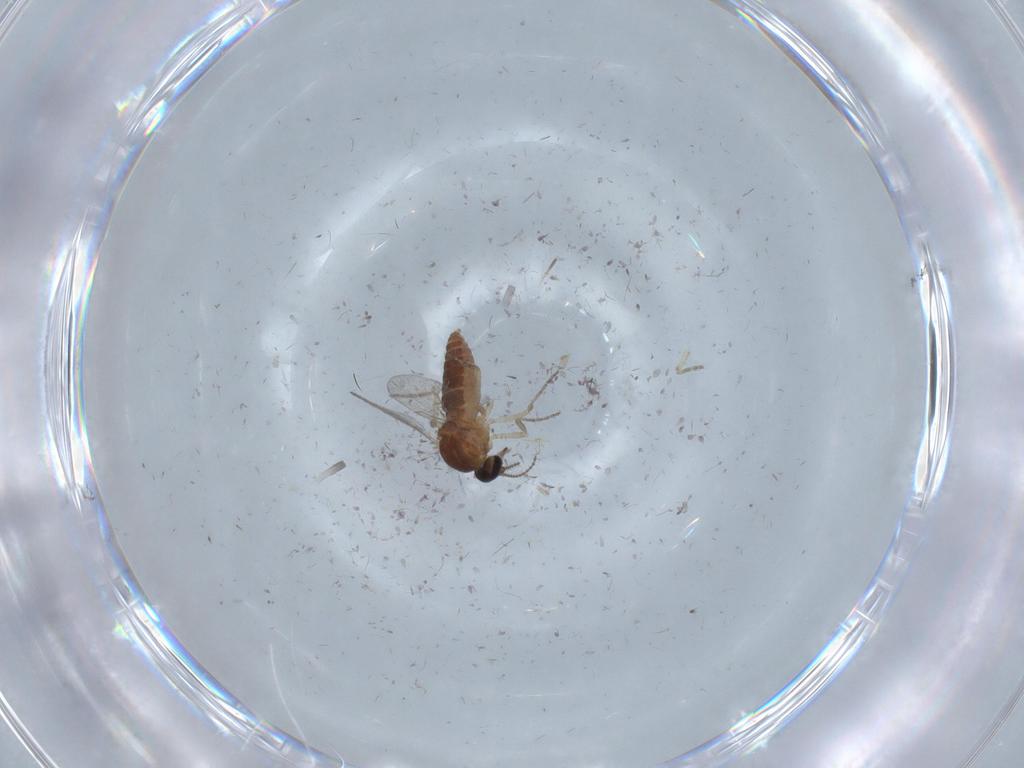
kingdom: Animalia
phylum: Arthropoda
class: Insecta
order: Diptera
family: Ceratopogonidae
